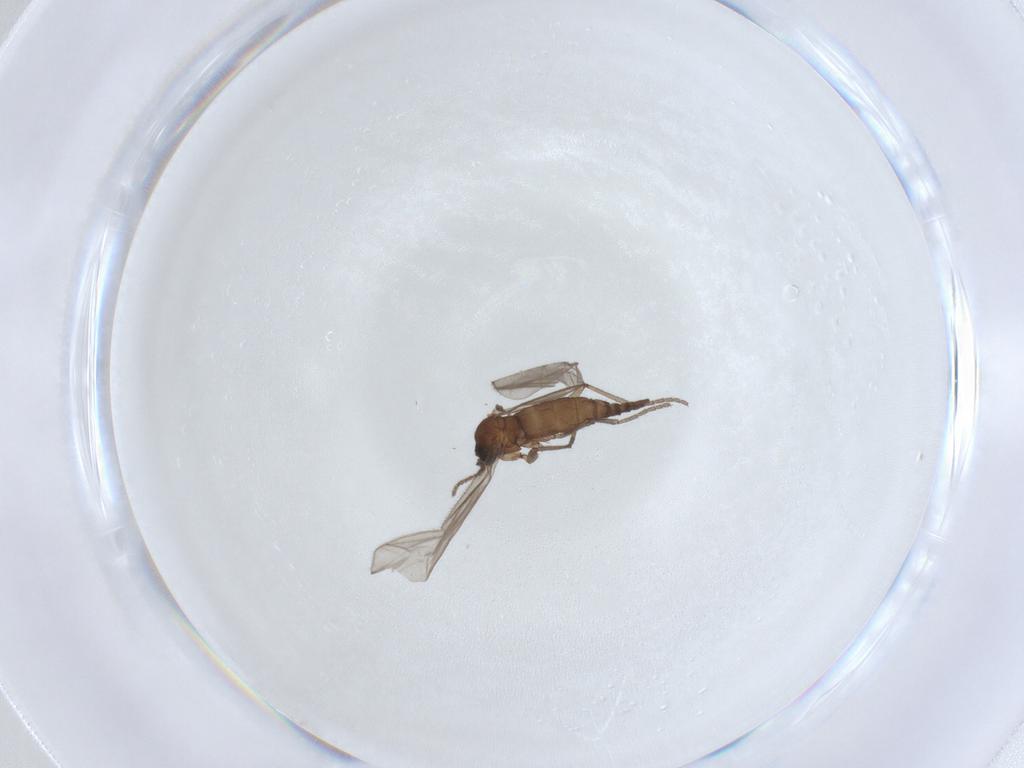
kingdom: Animalia
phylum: Arthropoda
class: Insecta
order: Diptera
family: Sciaridae
